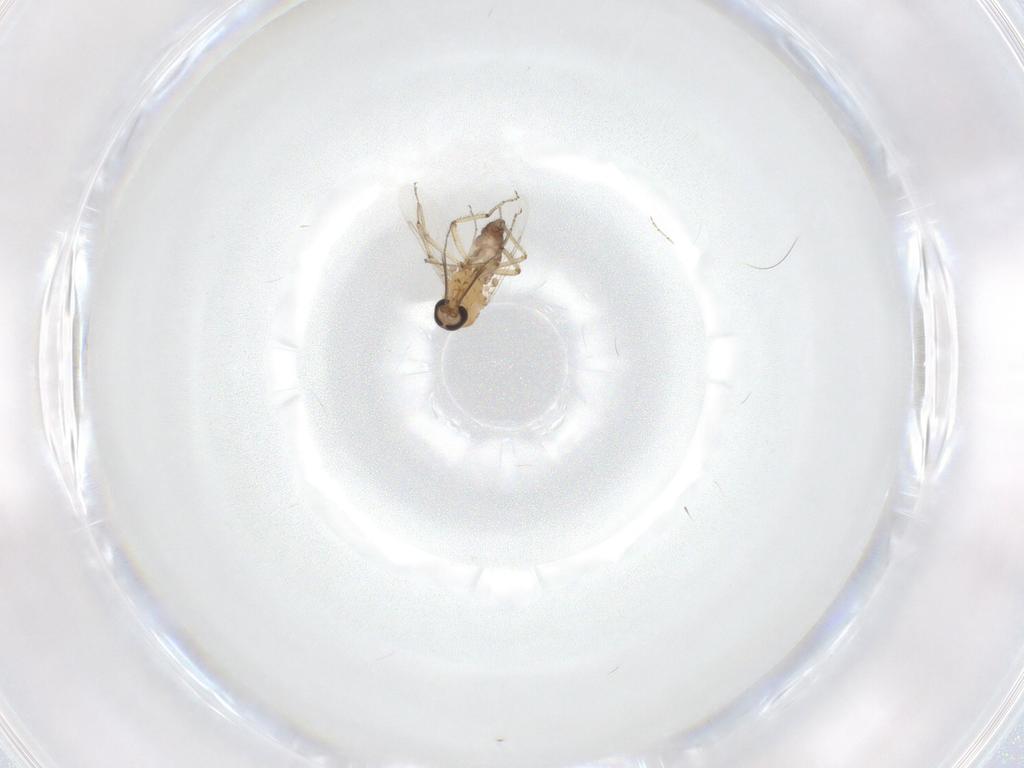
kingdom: Animalia
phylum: Arthropoda
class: Insecta
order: Diptera
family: Ceratopogonidae
